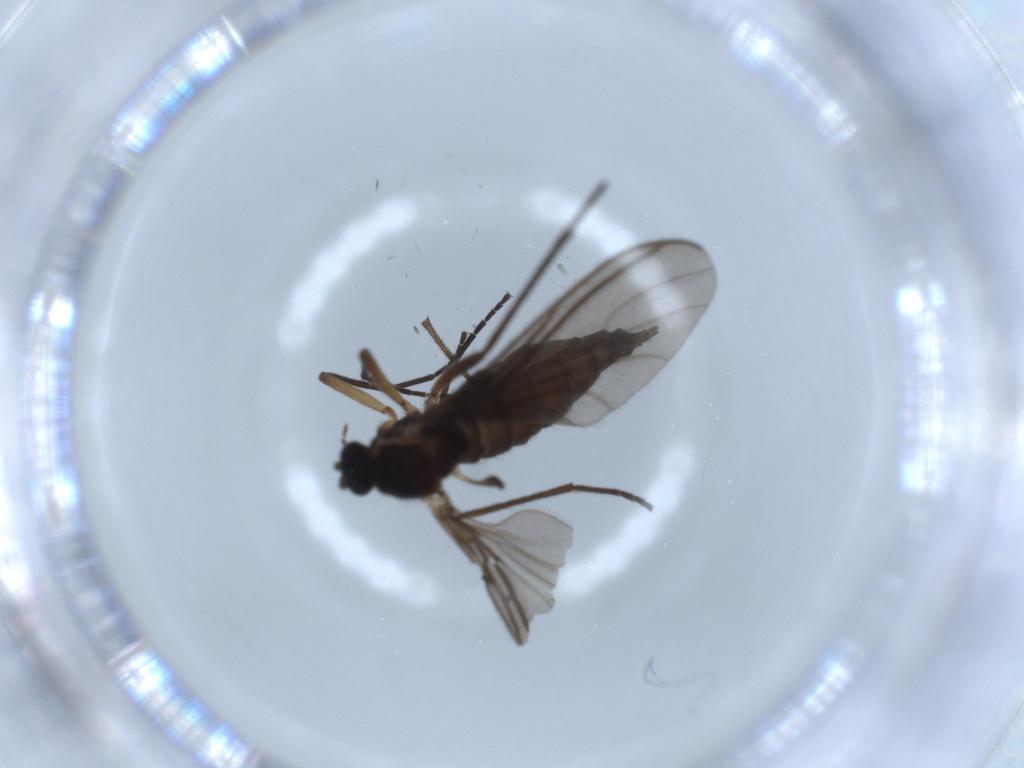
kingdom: Animalia
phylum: Arthropoda
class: Insecta
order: Diptera
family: Sciaridae
